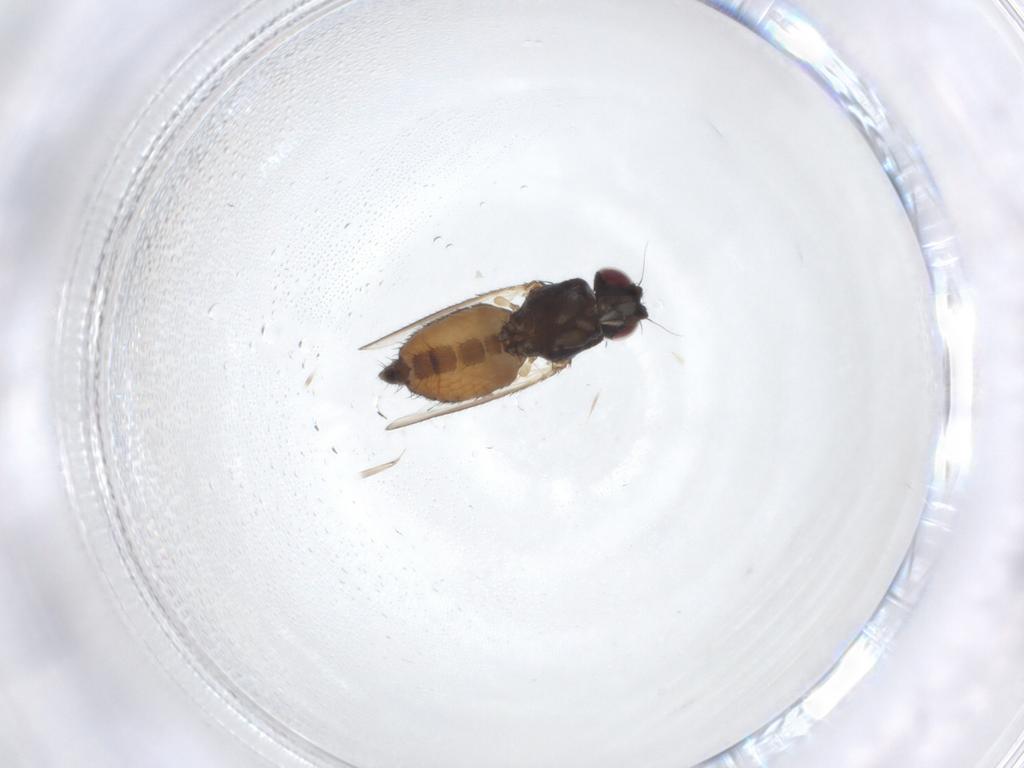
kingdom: Animalia
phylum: Arthropoda
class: Insecta
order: Diptera
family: Milichiidae
